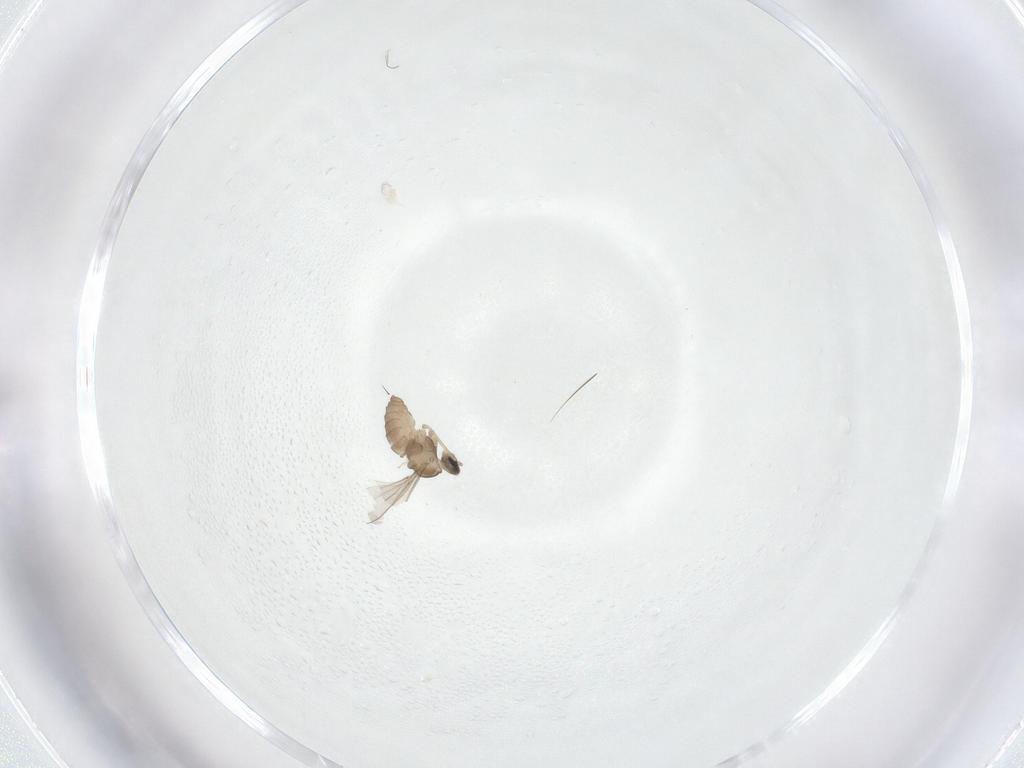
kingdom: Animalia
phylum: Arthropoda
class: Insecta
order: Diptera
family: Cecidomyiidae
